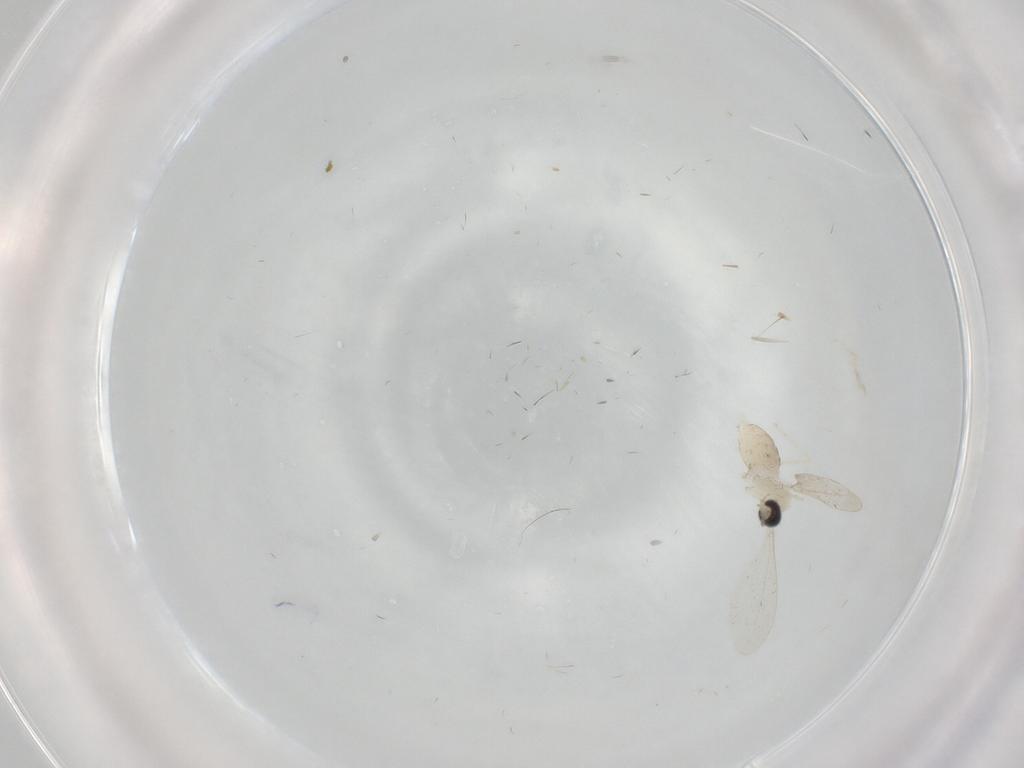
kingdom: Animalia
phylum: Arthropoda
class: Insecta
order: Diptera
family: Cecidomyiidae
